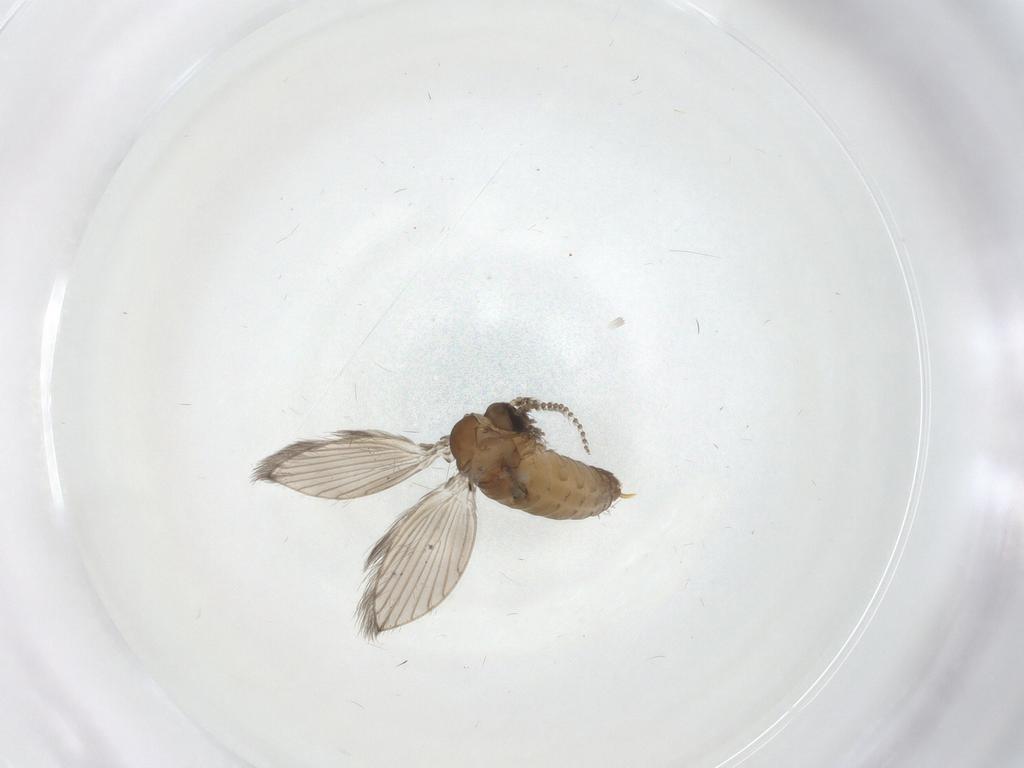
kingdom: Animalia
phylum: Arthropoda
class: Insecta
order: Diptera
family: Psychodidae
